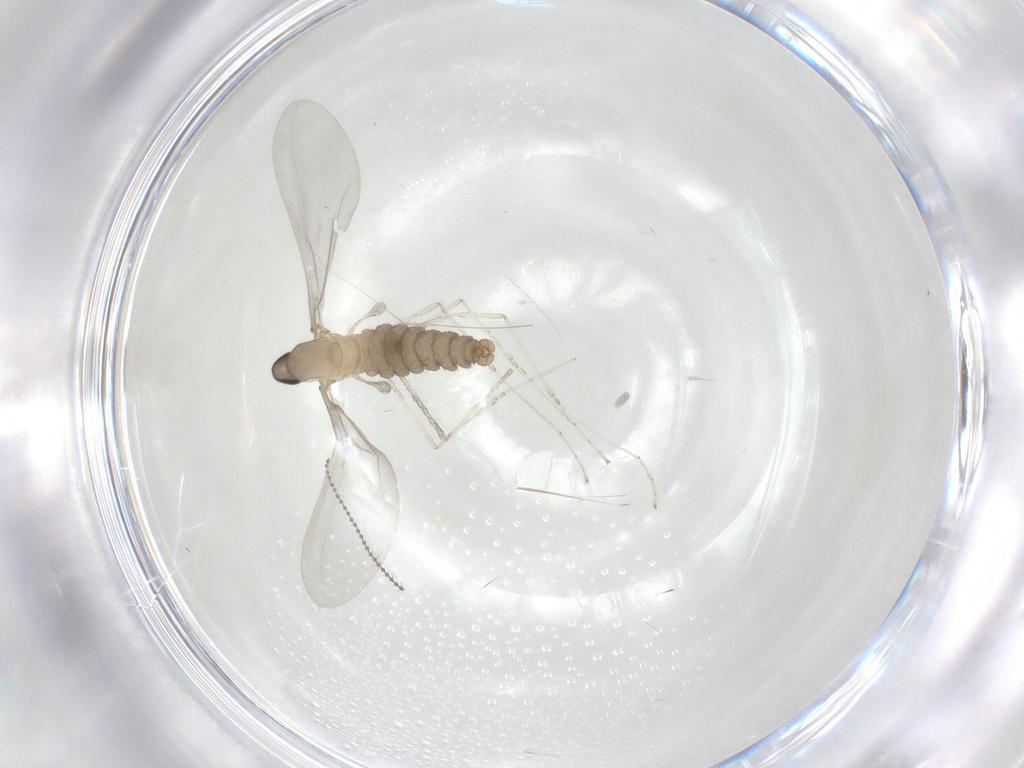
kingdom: Animalia
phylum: Arthropoda
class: Insecta
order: Diptera
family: Cecidomyiidae
